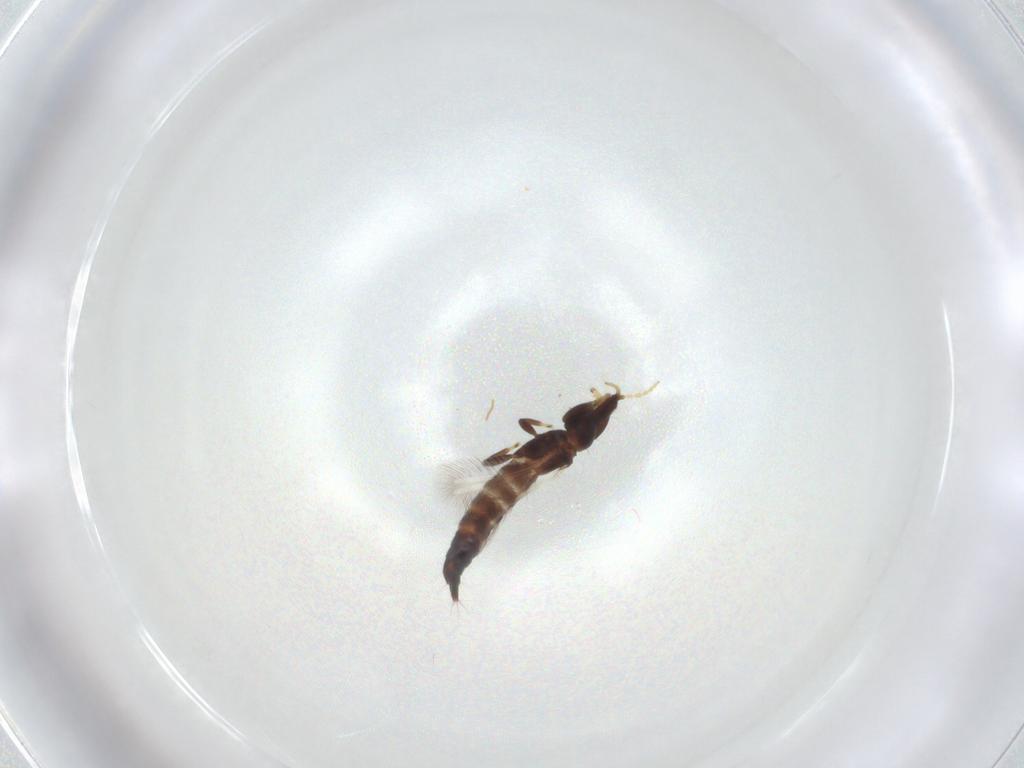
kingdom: Animalia
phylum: Arthropoda
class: Insecta
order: Thysanoptera
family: Phlaeothripidae
